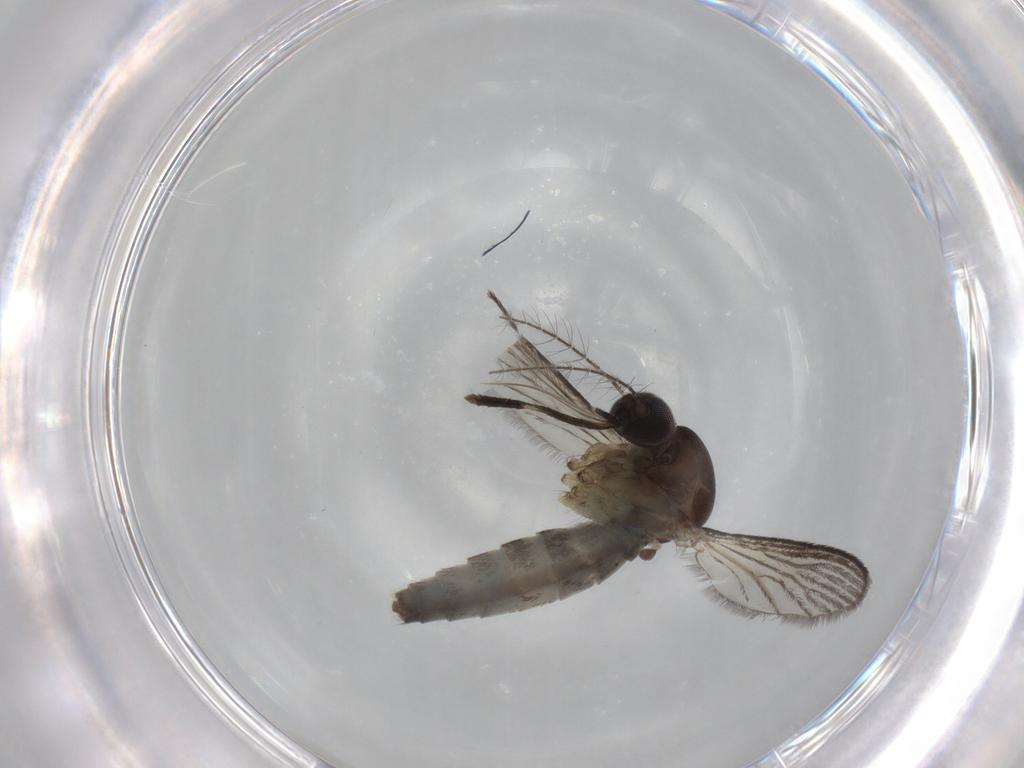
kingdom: Animalia
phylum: Arthropoda
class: Insecta
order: Diptera
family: Chironomidae
